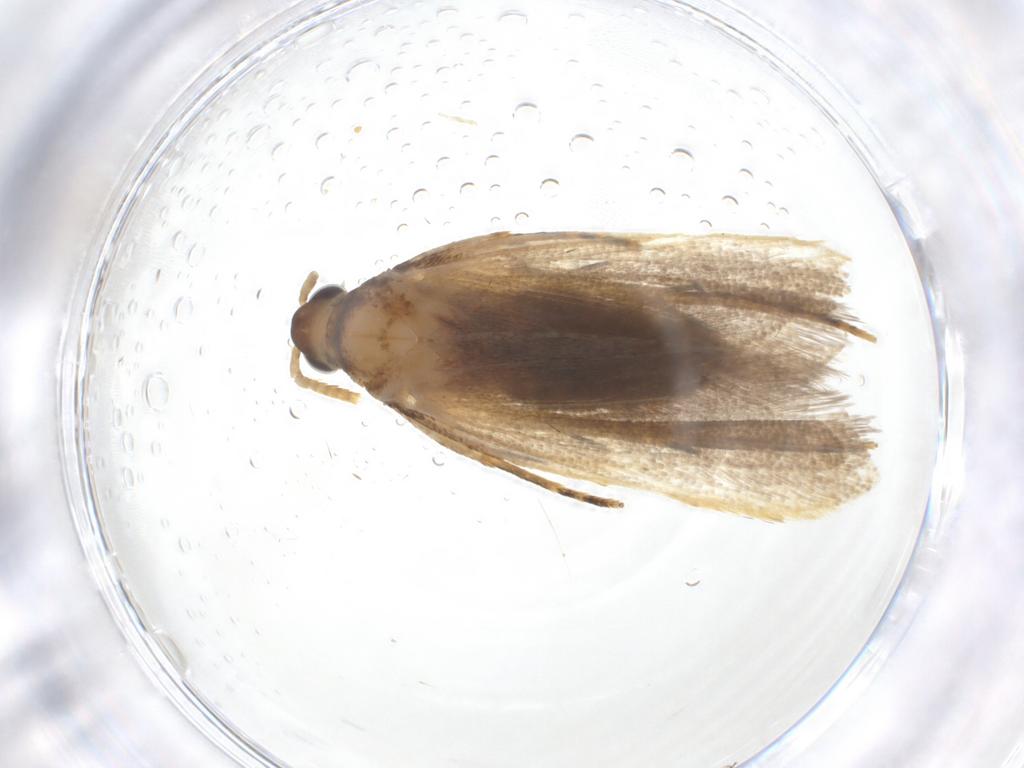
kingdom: Animalia
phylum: Arthropoda
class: Insecta
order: Lepidoptera
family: Lecithoceridae
